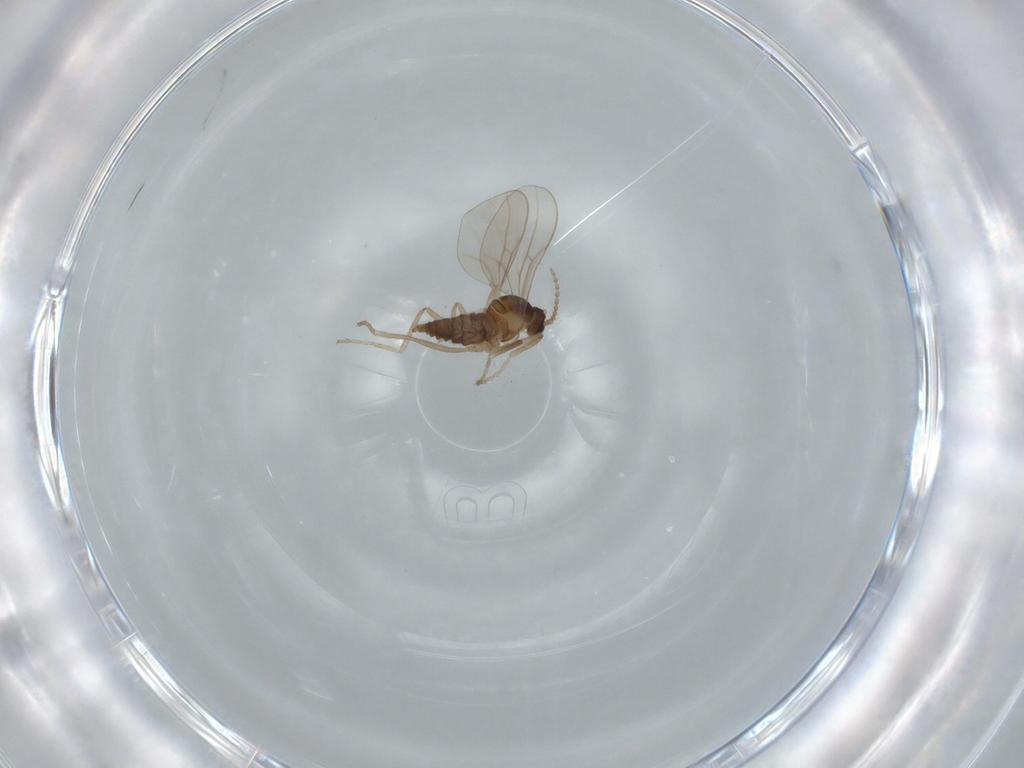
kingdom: Animalia
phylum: Arthropoda
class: Insecta
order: Diptera
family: Cecidomyiidae
